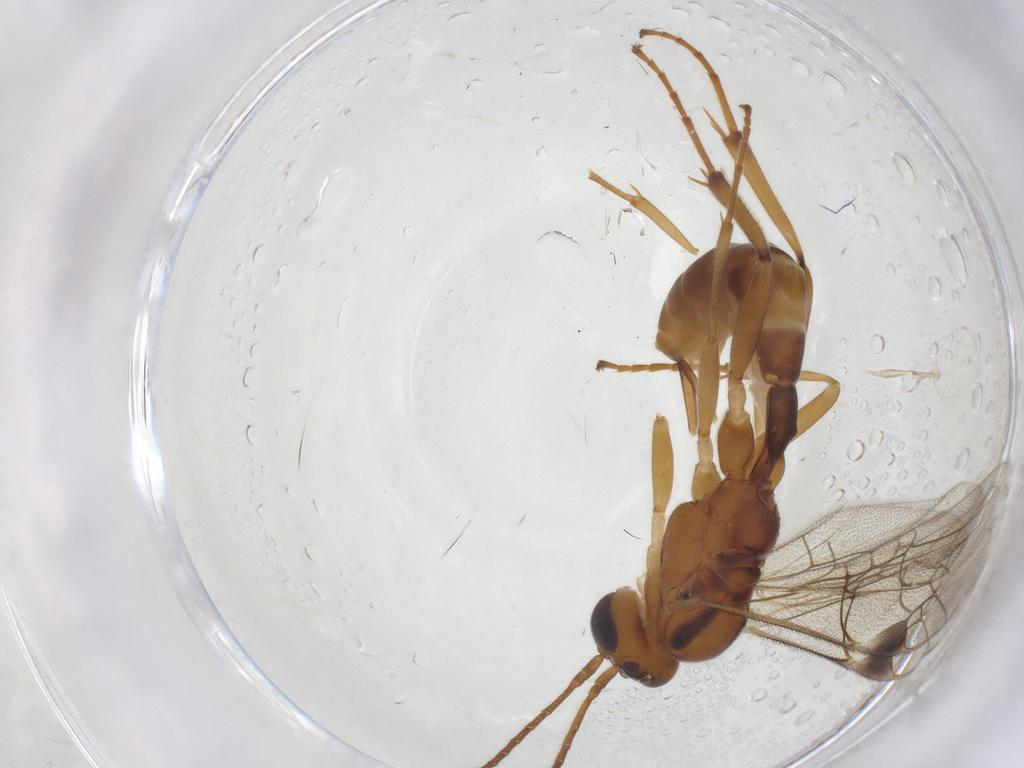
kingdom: Animalia
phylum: Arthropoda
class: Insecta
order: Hymenoptera
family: Ichneumonidae
